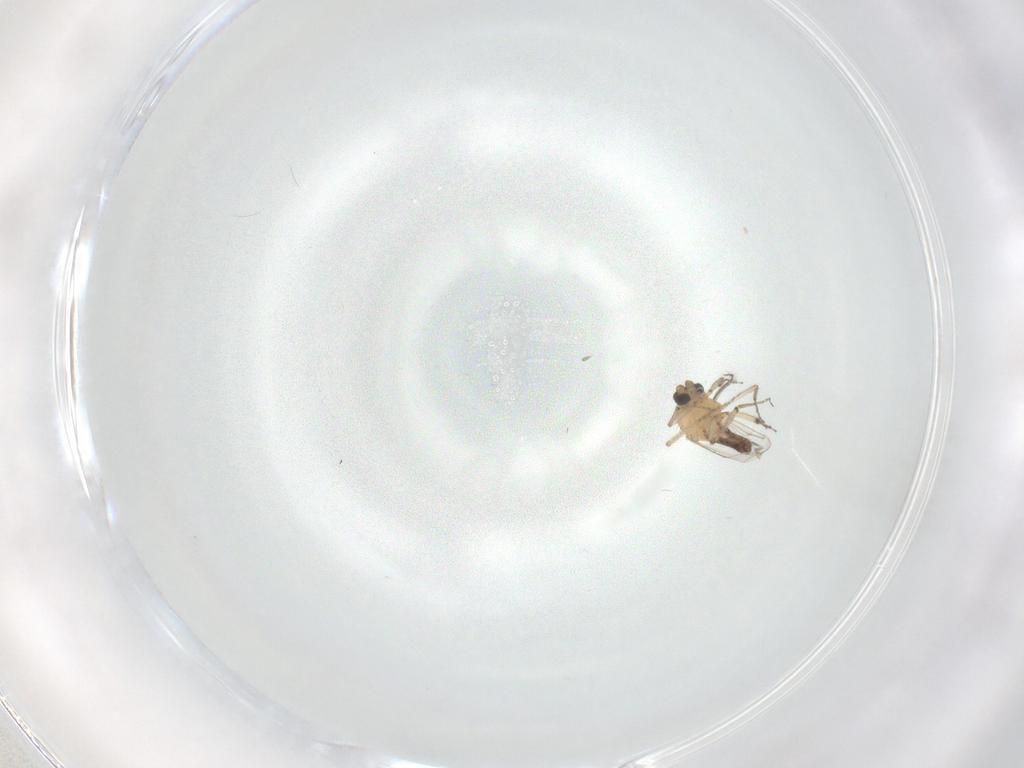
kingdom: Animalia
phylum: Arthropoda
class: Insecta
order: Diptera
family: Ceratopogonidae
